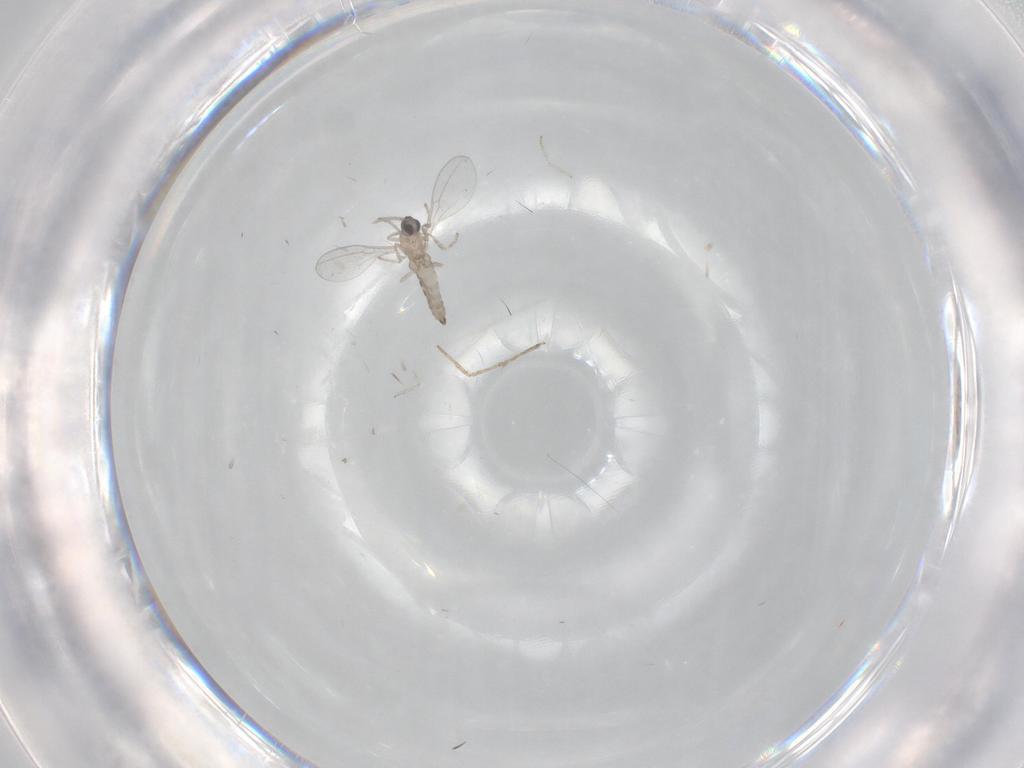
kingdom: Animalia
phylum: Arthropoda
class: Insecta
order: Diptera
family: Cecidomyiidae
